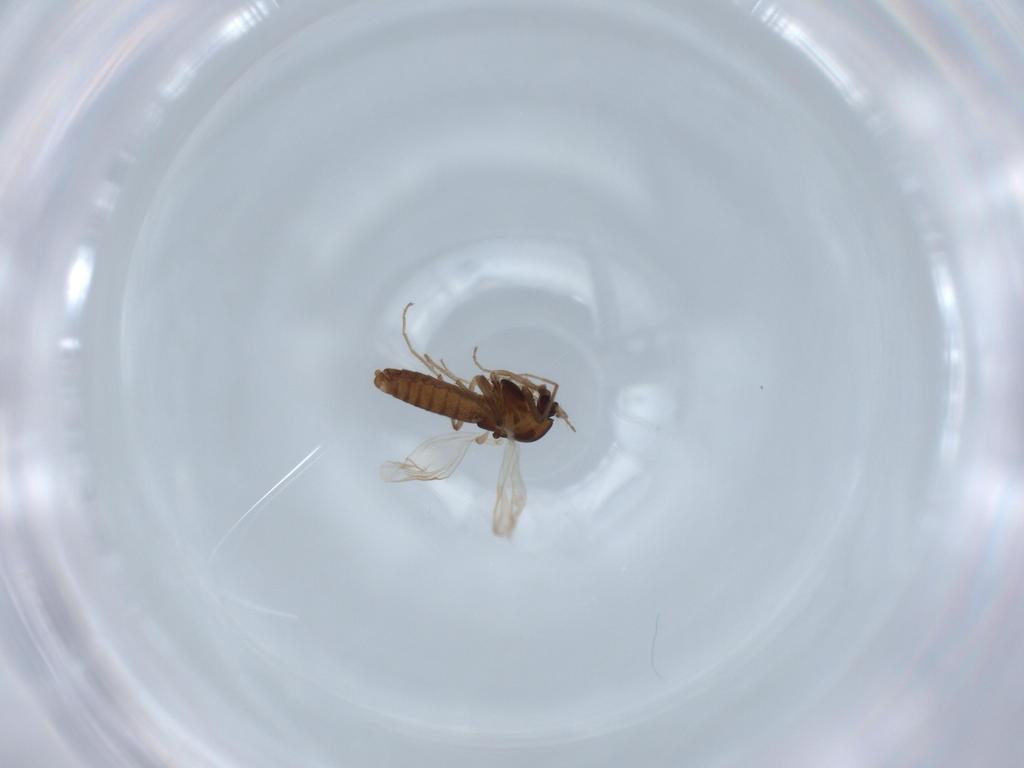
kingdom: Animalia
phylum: Arthropoda
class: Insecta
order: Diptera
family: Chironomidae
